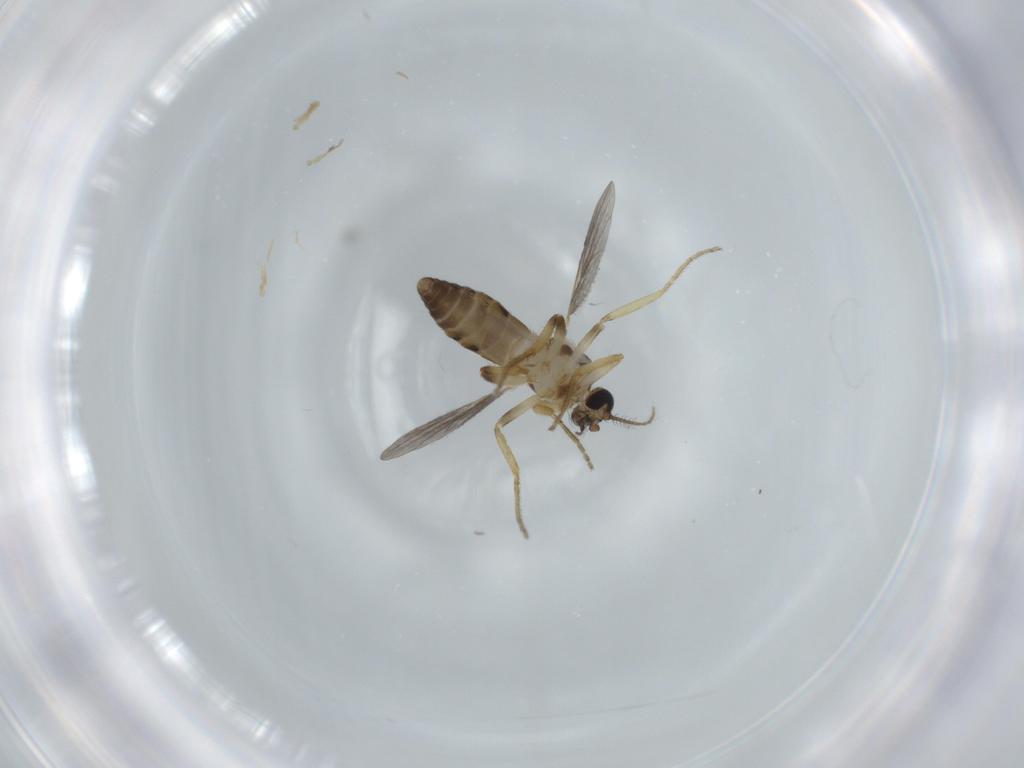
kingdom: Animalia
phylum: Arthropoda
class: Insecta
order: Diptera
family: Ceratopogonidae
